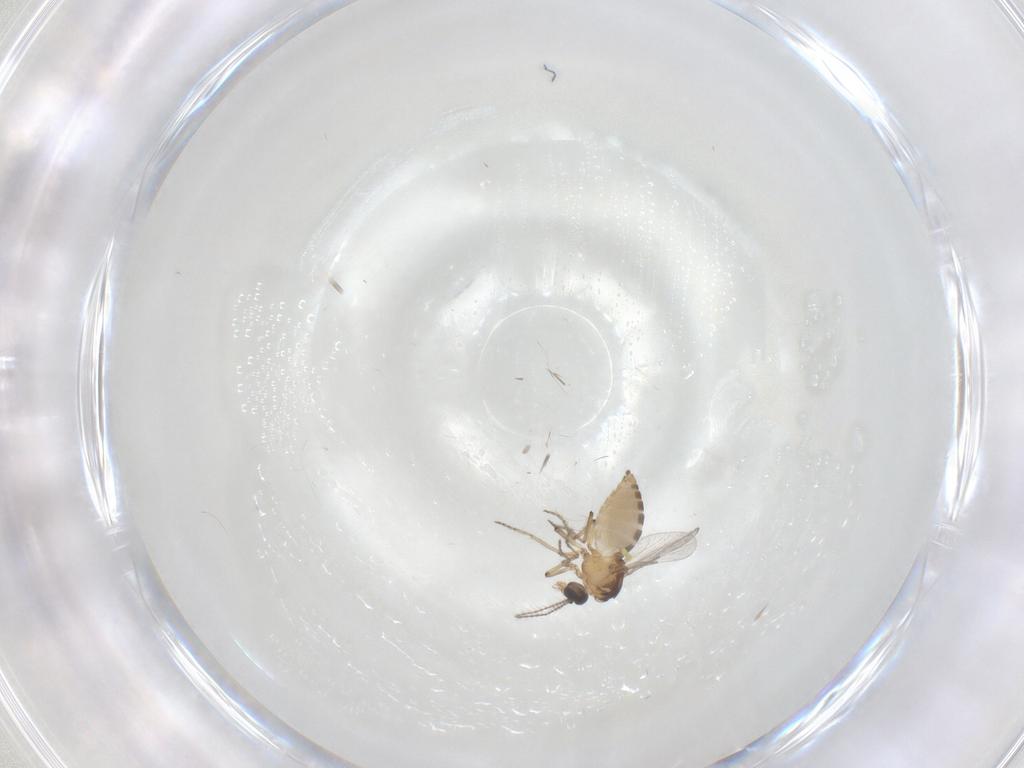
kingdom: Animalia
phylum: Arthropoda
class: Insecta
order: Diptera
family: Ceratopogonidae
